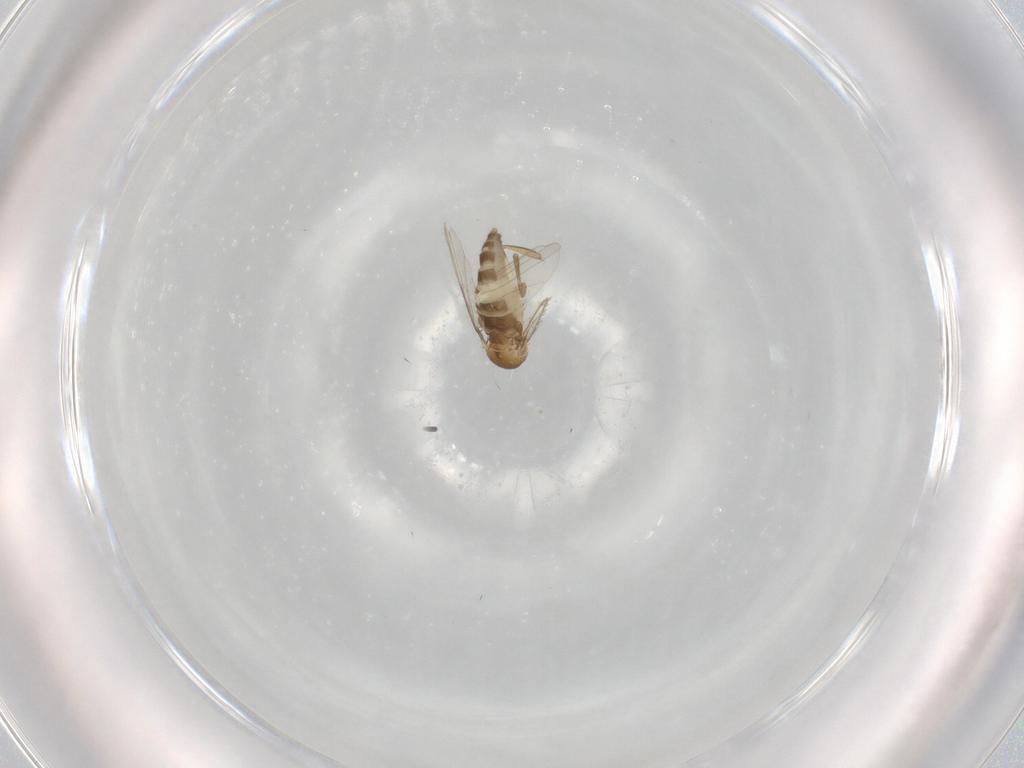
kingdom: Animalia
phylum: Arthropoda
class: Insecta
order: Diptera
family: Phoridae
